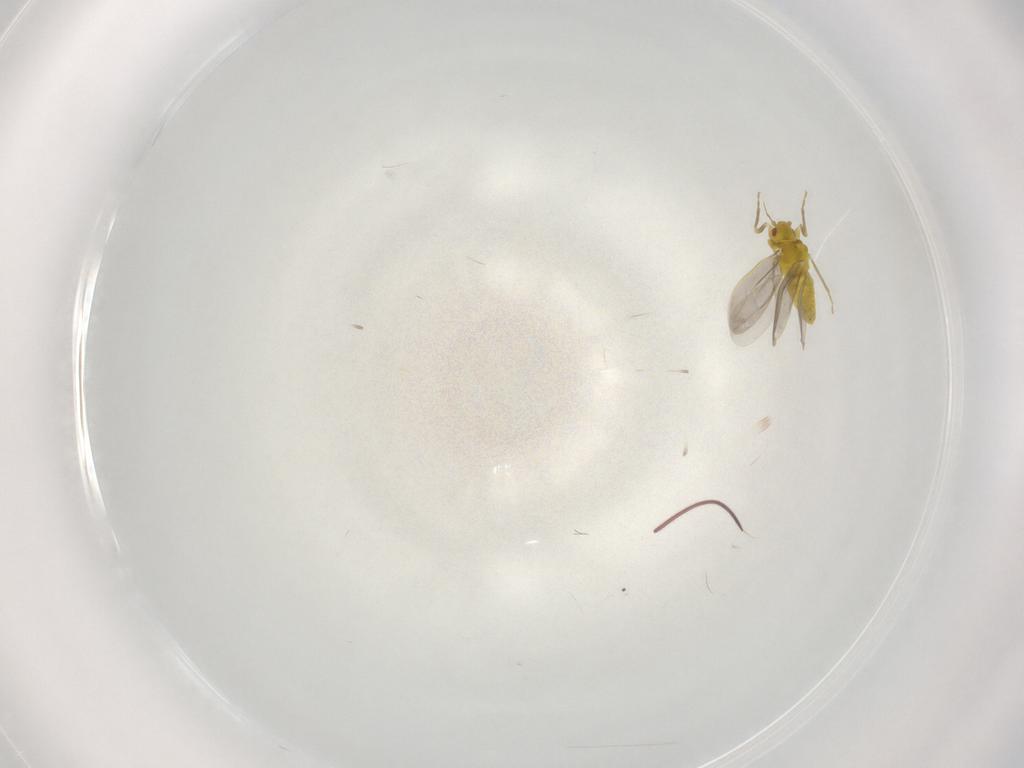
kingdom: Animalia
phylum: Arthropoda
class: Insecta
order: Hemiptera
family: Aleyrodidae
